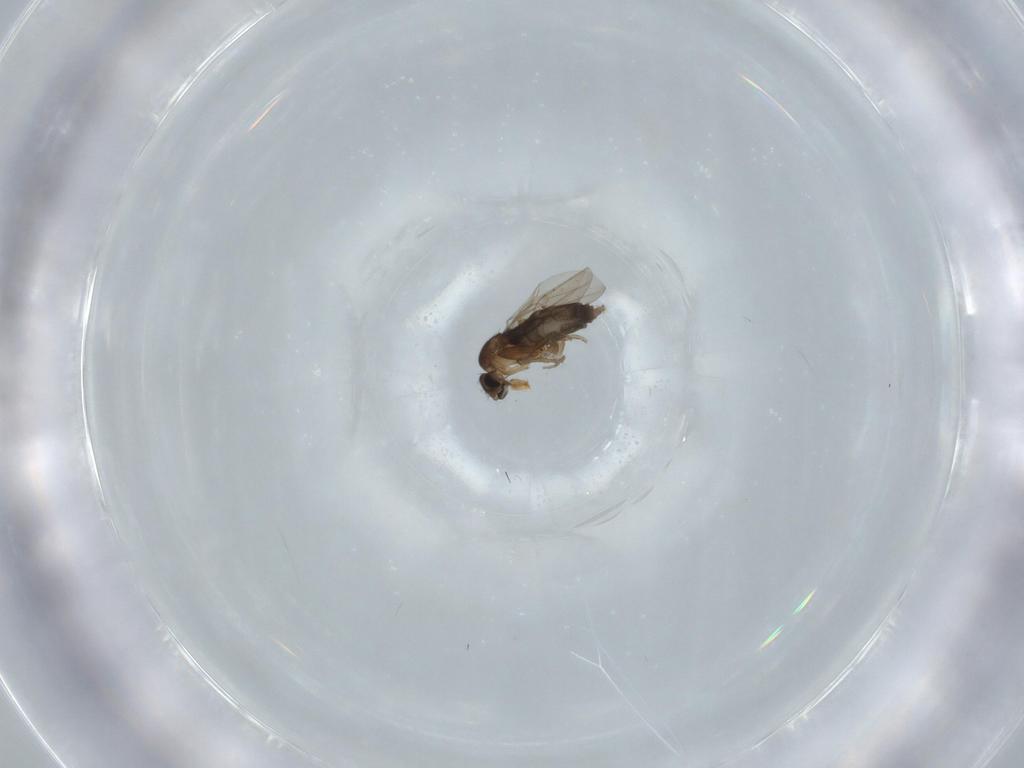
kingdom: Animalia
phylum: Arthropoda
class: Insecta
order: Diptera
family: Phoridae
